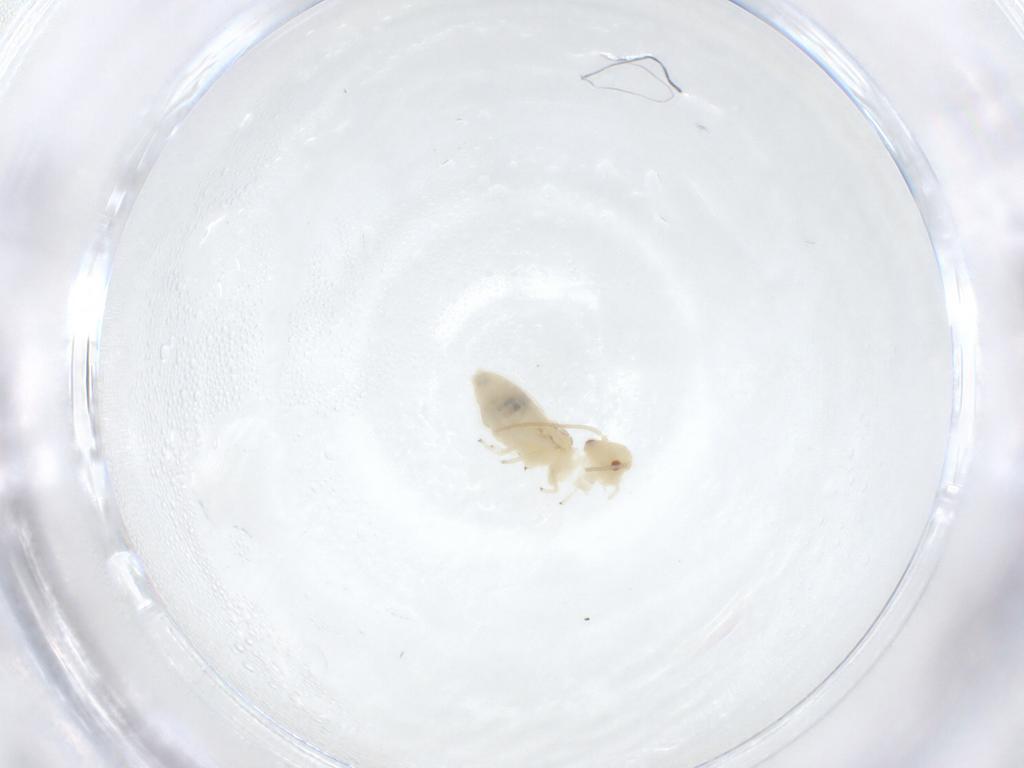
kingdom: Animalia
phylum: Arthropoda
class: Insecta
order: Psocodea
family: Caeciliusidae
